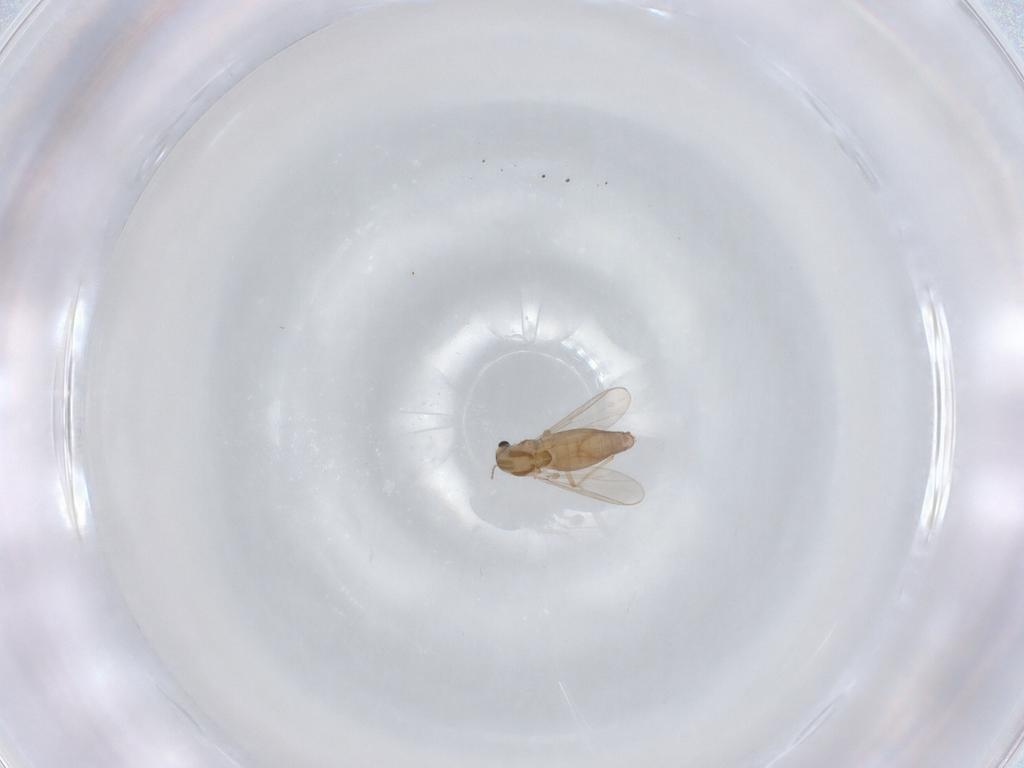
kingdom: Animalia
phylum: Arthropoda
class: Insecta
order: Diptera
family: Chironomidae
